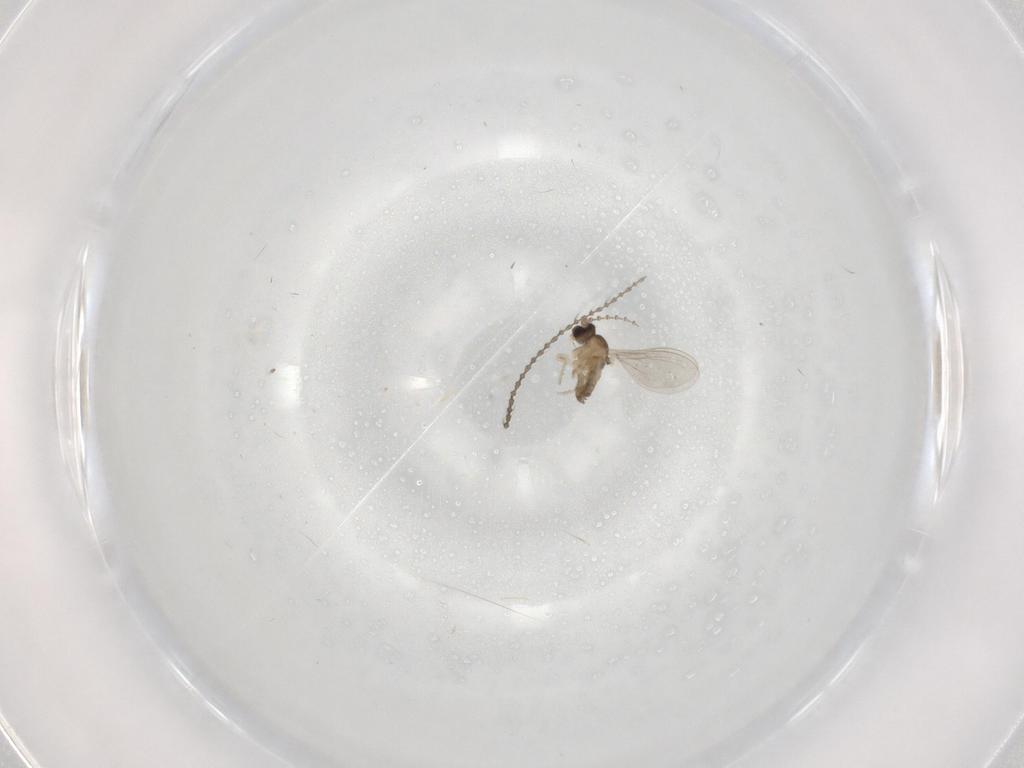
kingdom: Animalia
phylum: Arthropoda
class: Insecta
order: Diptera
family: Cecidomyiidae
